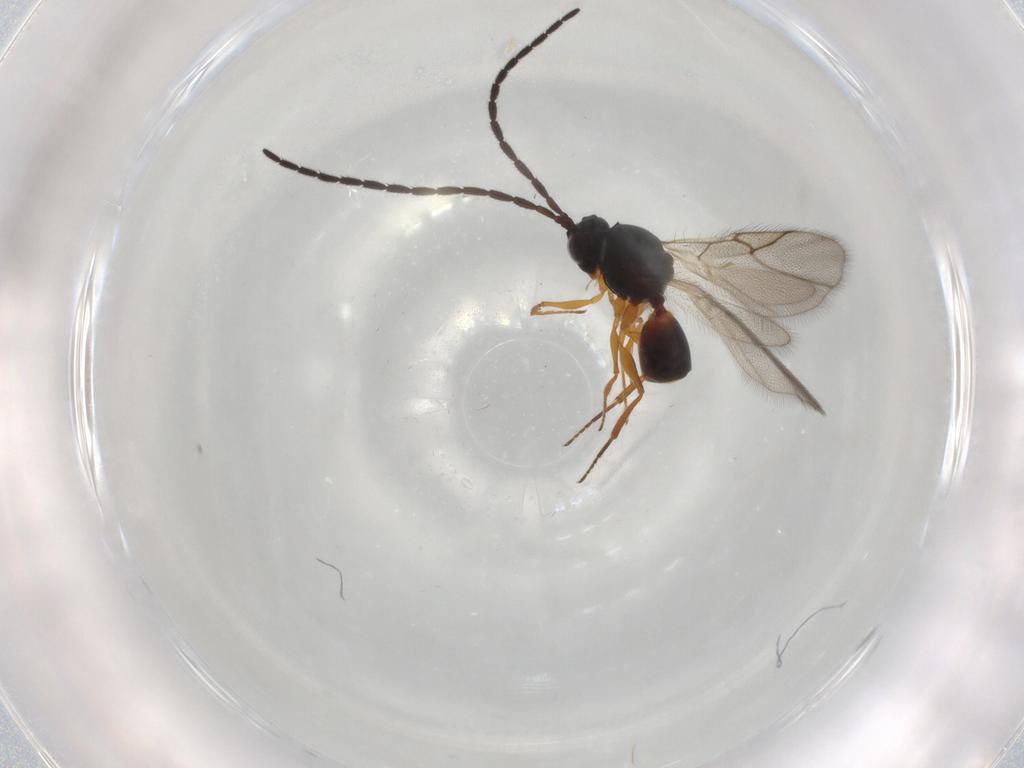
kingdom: Animalia
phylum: Arthropoda
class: Insecta
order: Hymenoptera
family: Figitidae
